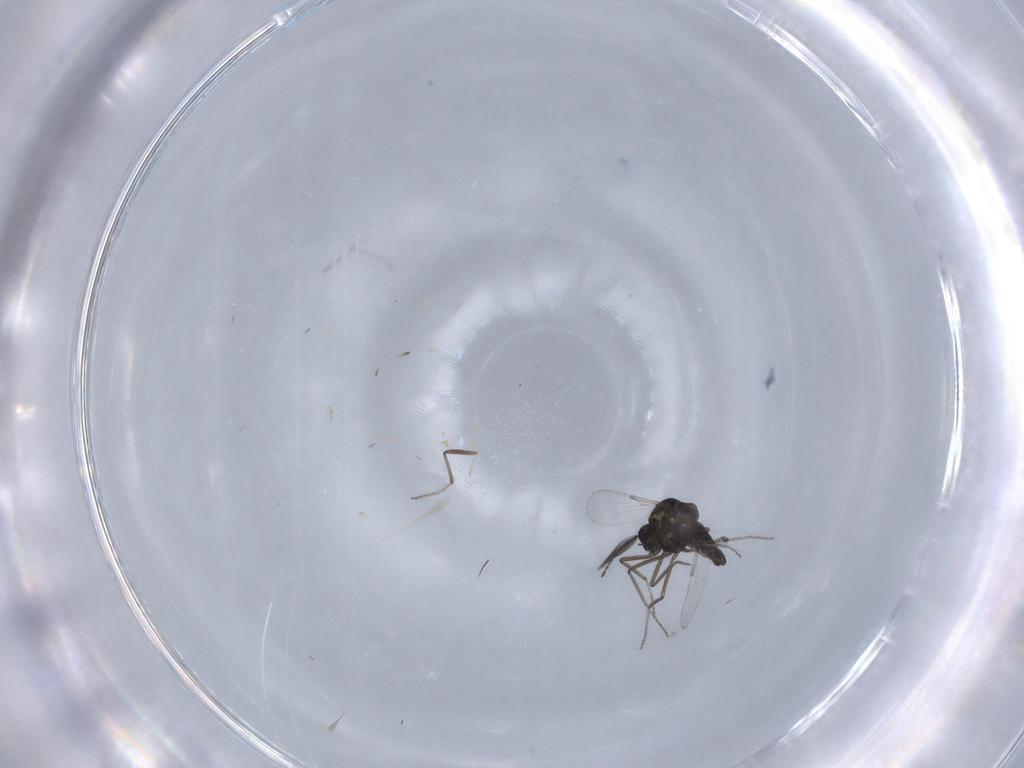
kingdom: Animalia
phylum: Arthropoda
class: Insecta
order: Diptera
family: Ceratopogonidae
